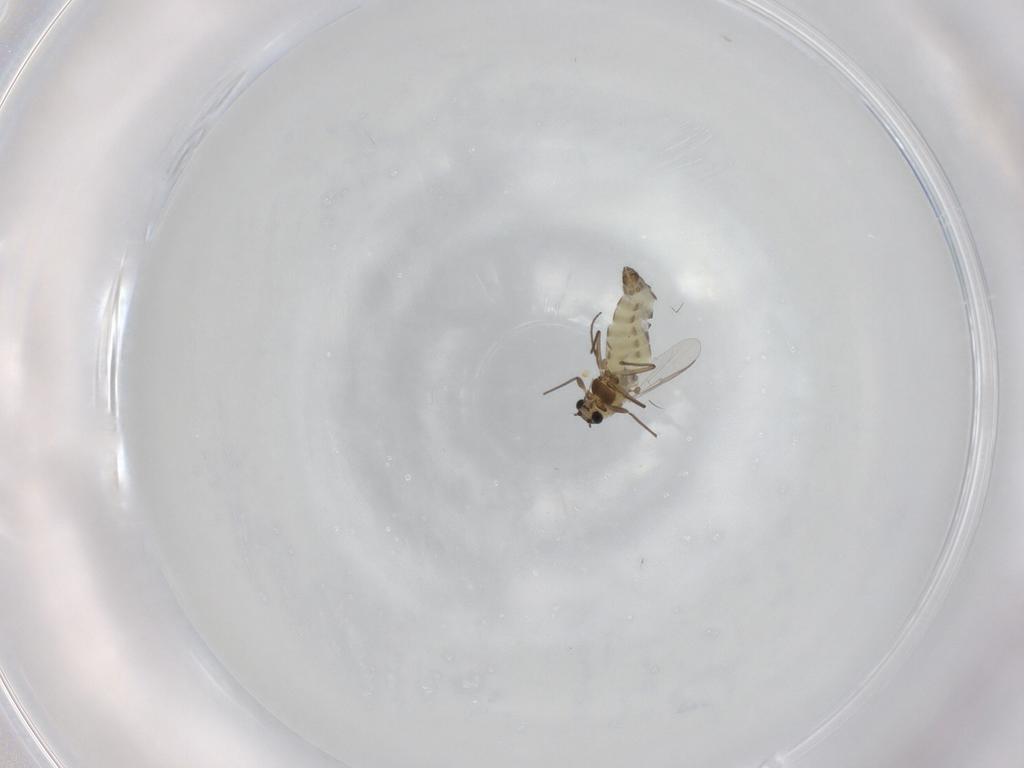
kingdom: Animalia
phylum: Arthropoda
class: Insecta
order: Diptera
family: Chironomidae
